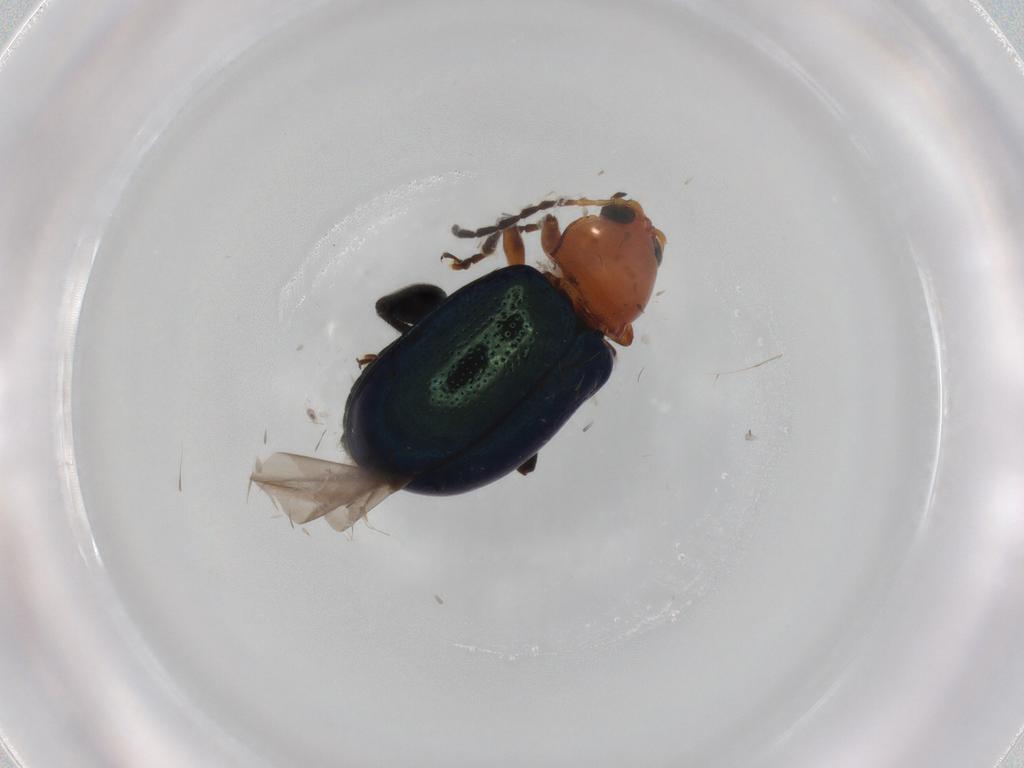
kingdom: Animalia
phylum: Arthropoda
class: Insecta
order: Coleoptera
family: Chrysomelidae
